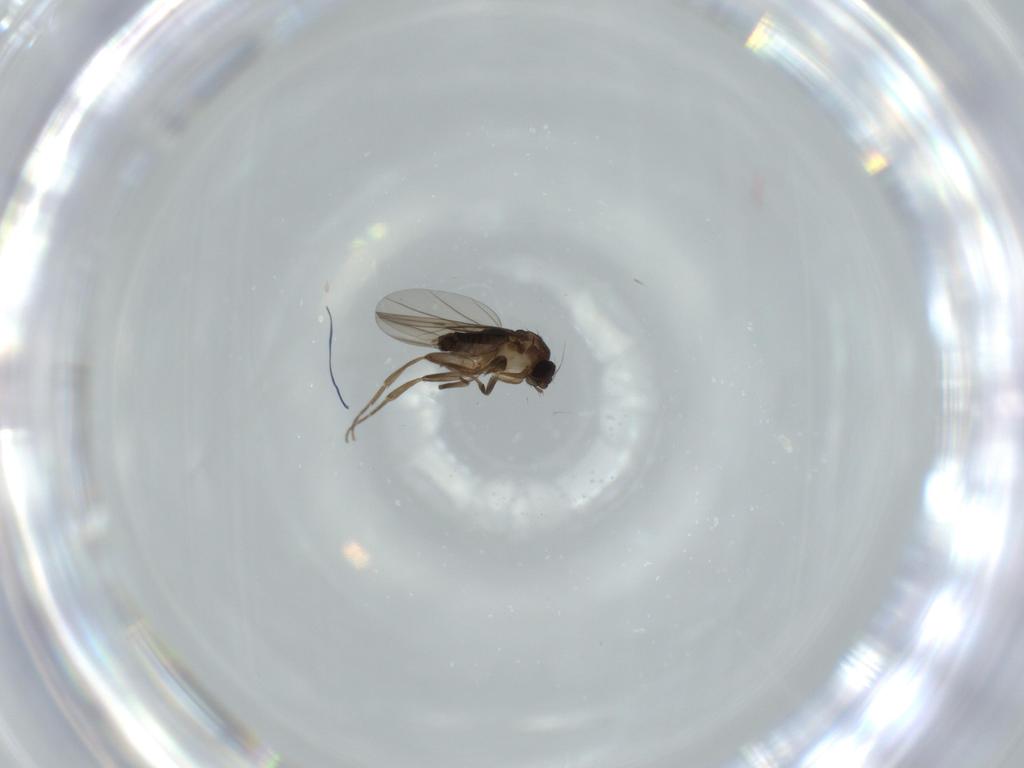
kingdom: Animalia
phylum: Arthropoda
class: Insecta
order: Diptera
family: Phoridae
